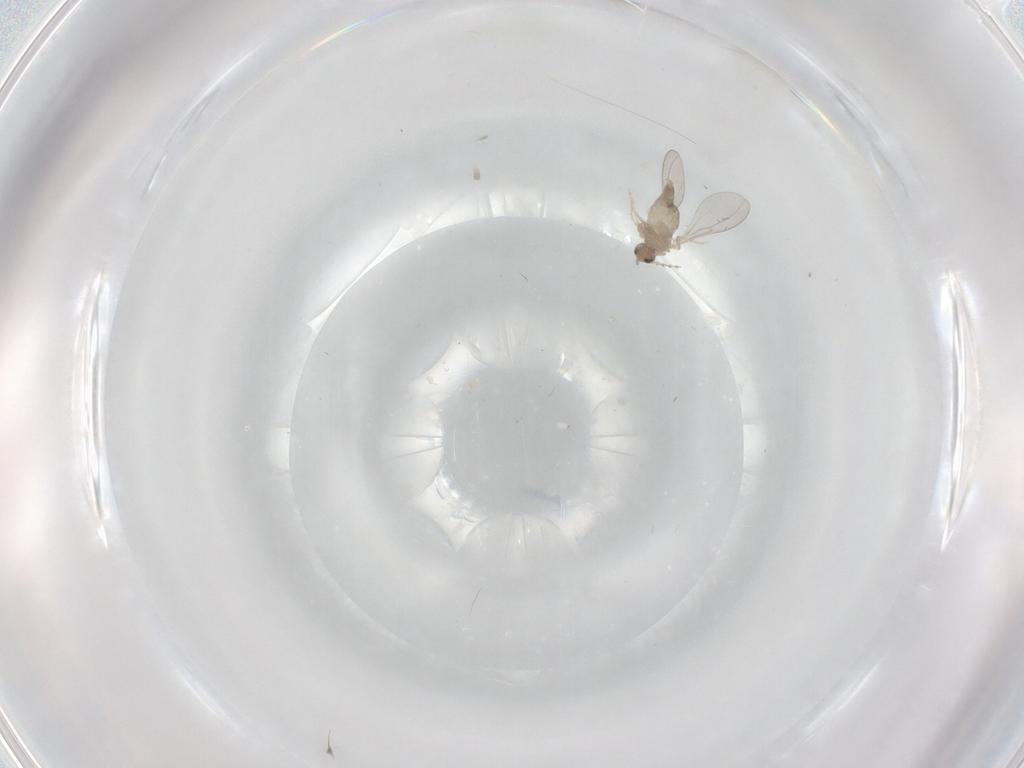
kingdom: Animalia
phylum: Arthropoda
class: Insecta
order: Diptera
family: Cecidomyiidae
